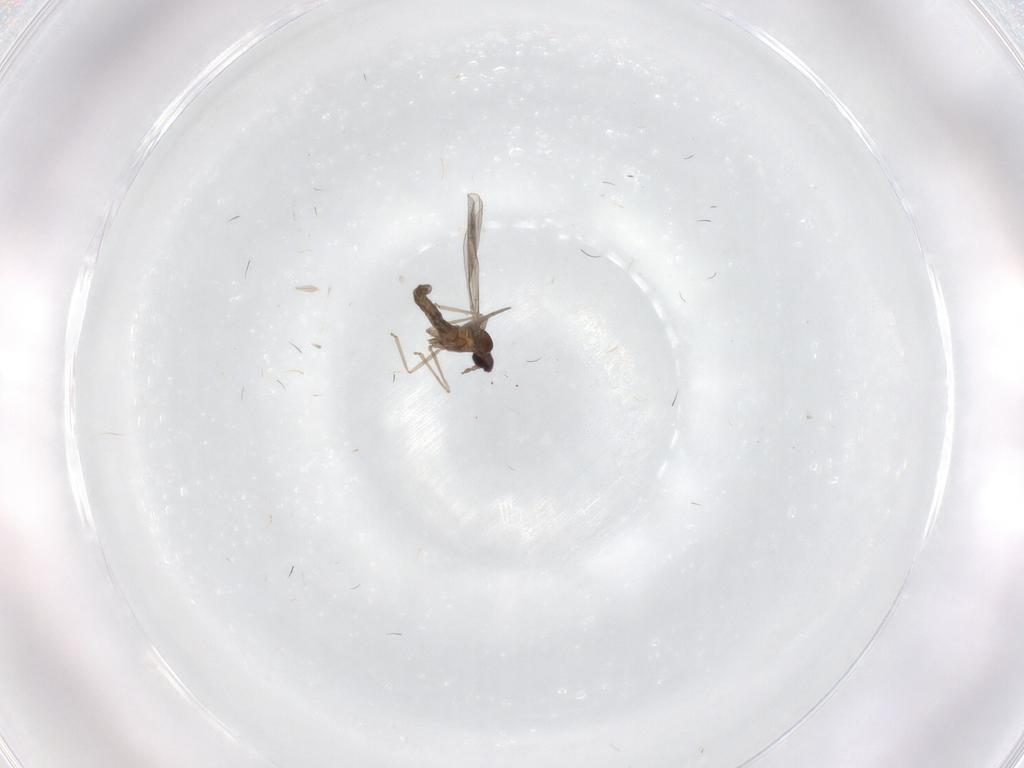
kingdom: Animalia
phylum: Arthropoda
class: Insecta
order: Diptera
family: Cecidomyiidae
